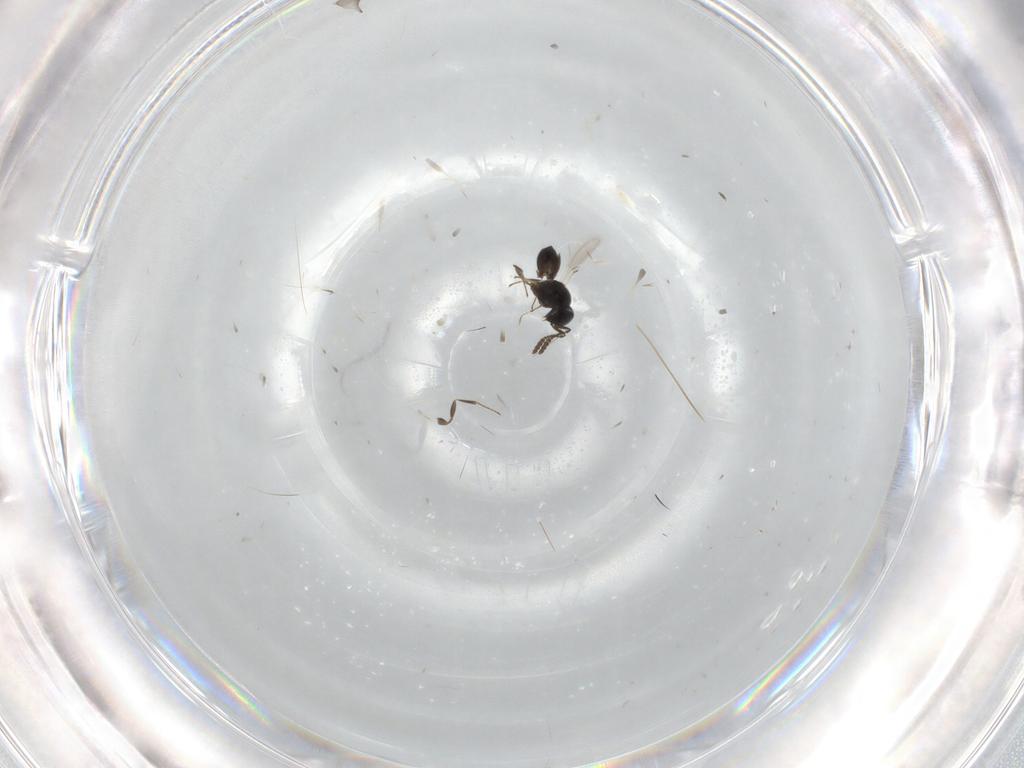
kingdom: Animalia
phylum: Arthropoda
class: Insecta
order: Hymenoptera
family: Scelionidae
